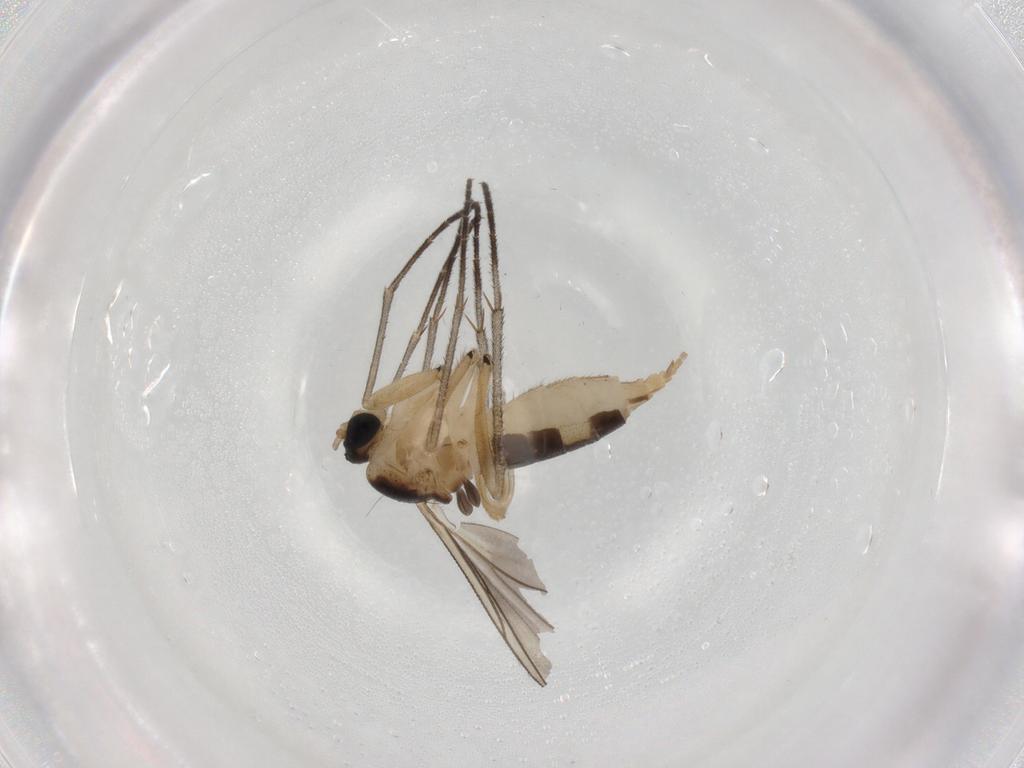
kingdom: Animalia
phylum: Arthropoda
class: Insecta
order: Diptera
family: Sciaridae
